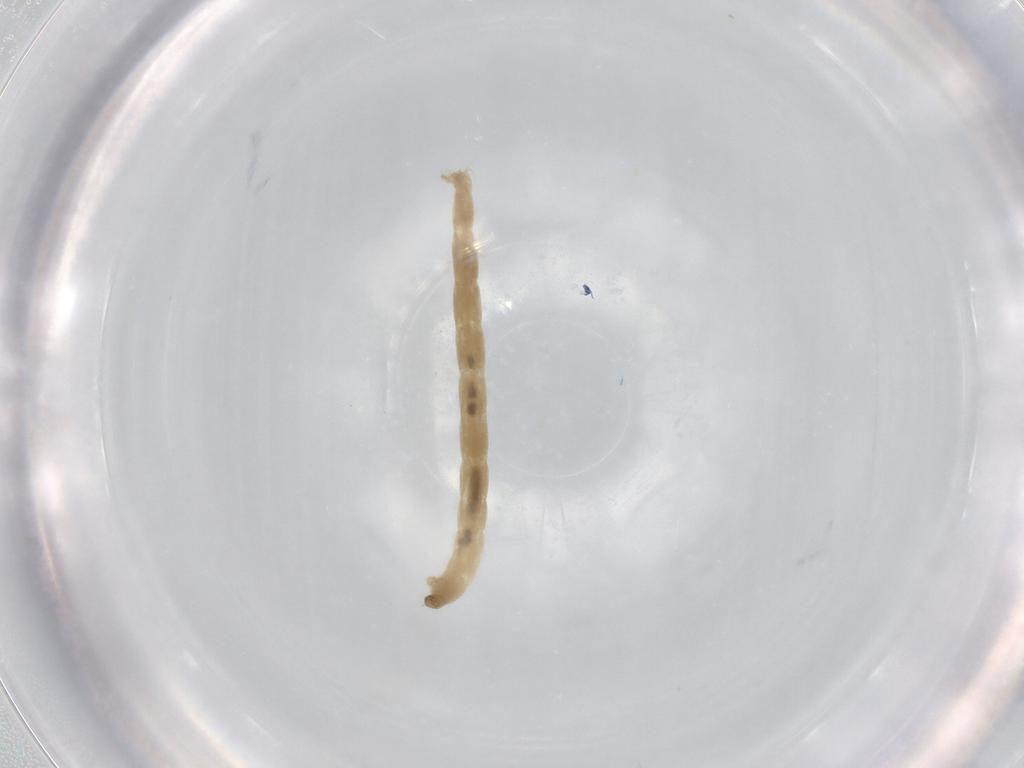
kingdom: Animalia
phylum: Arthropoda
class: Insecta
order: Diptera
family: Chironomidae
